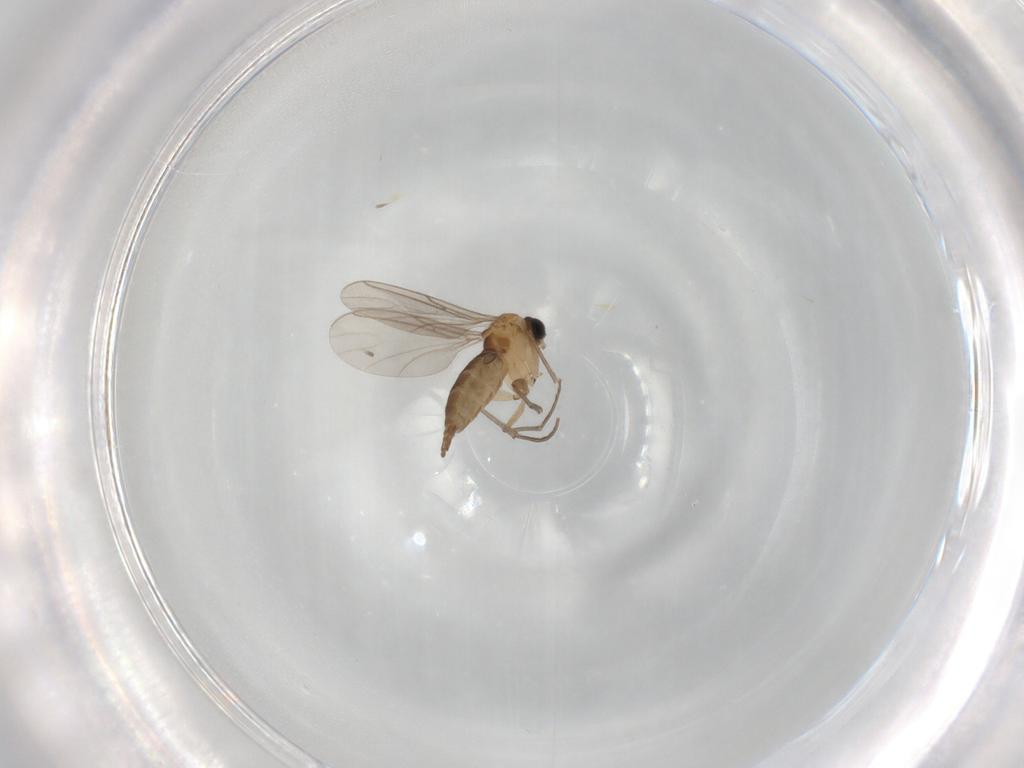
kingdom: Animalia
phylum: Arthropoda
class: Insecta
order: Diptera
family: Sciaridae
